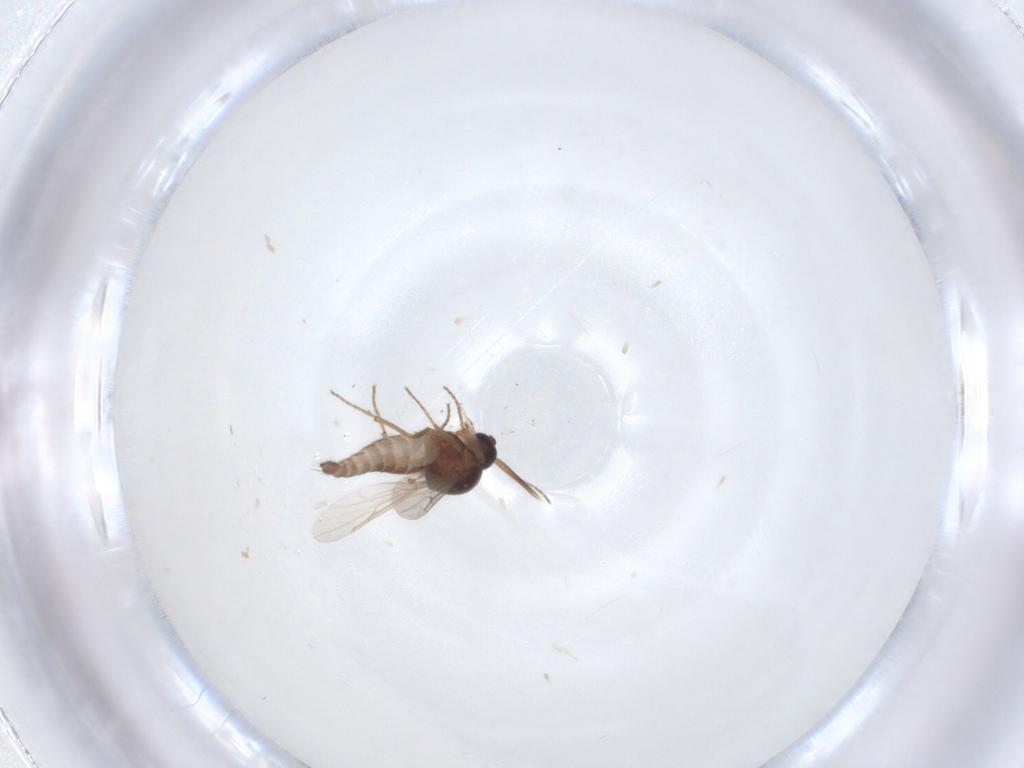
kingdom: Animalia
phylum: Arthropoda
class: Insecta
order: Diptera
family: Ceratopogonidae
